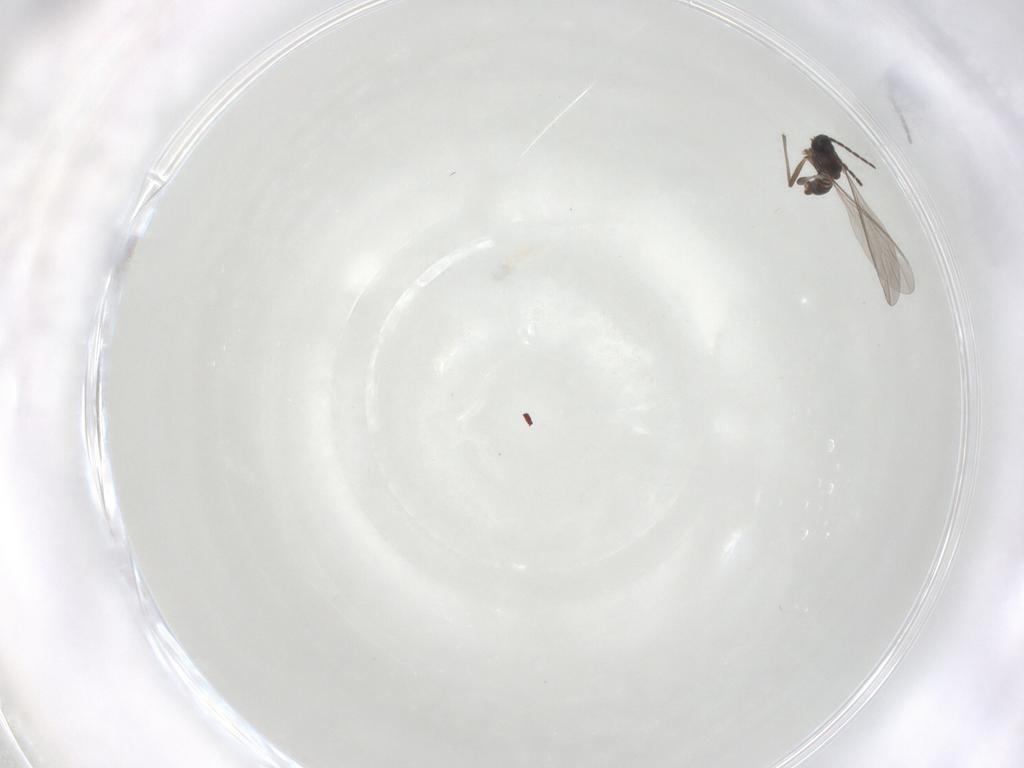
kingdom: Animalia
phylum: Arthropoda
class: Insecta
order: Diptera
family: Sciaridae
